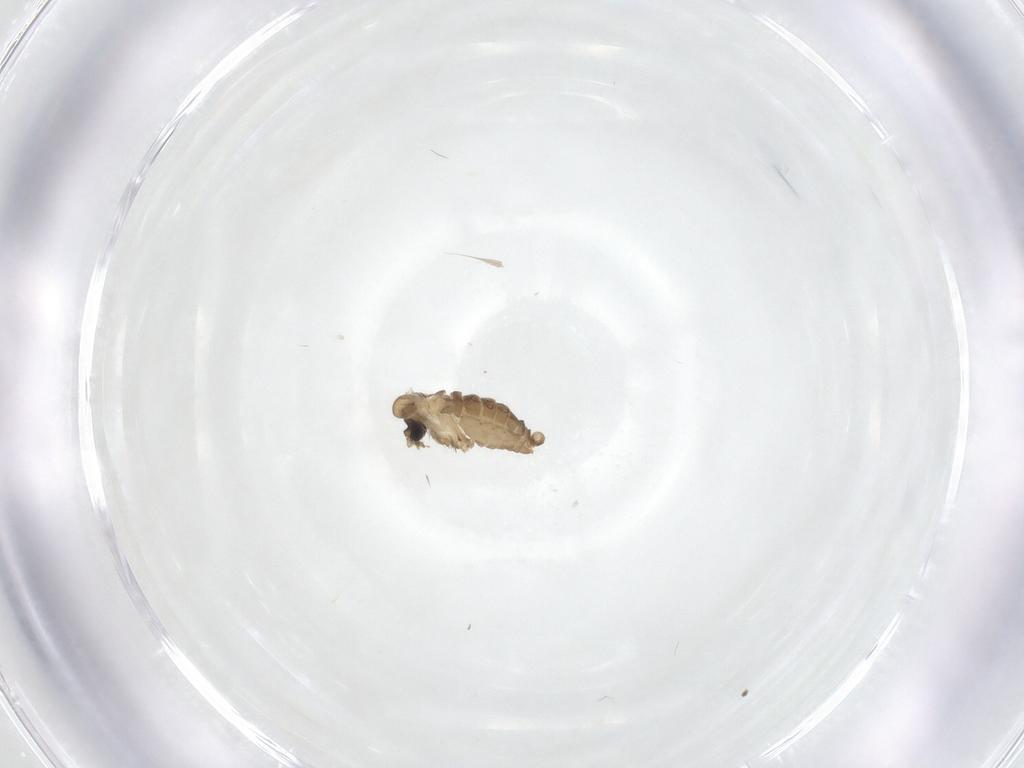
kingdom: Animalia
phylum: Arthropoda
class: Insecta
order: Diptera
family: Psychodidae
